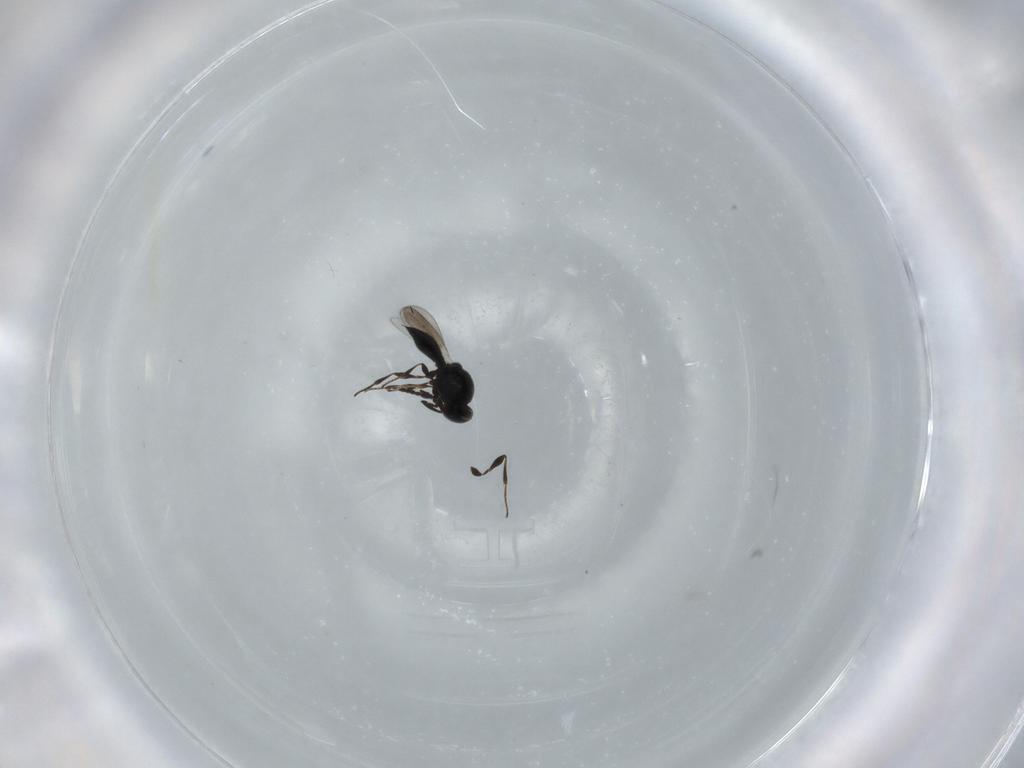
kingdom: Animalia
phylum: Arthropoda
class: Insecta
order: Hymenoptera
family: Platygastridae
